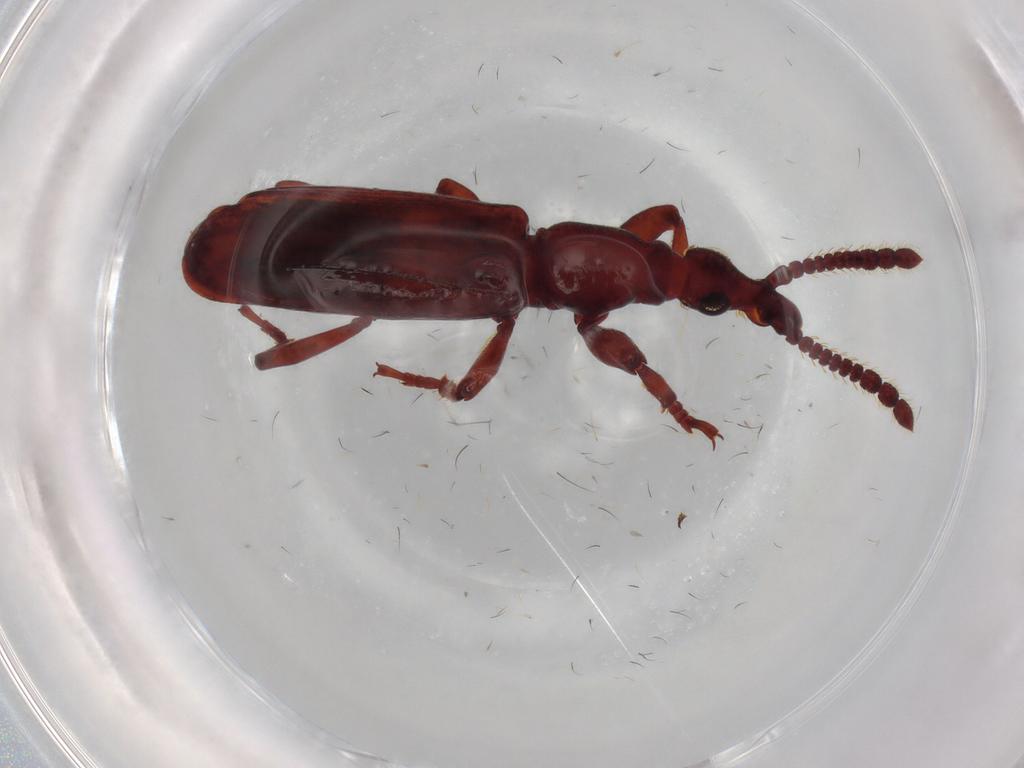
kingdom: Animalia
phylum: Arthropoda
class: Insecta
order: Coleoptera
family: Brentidae
